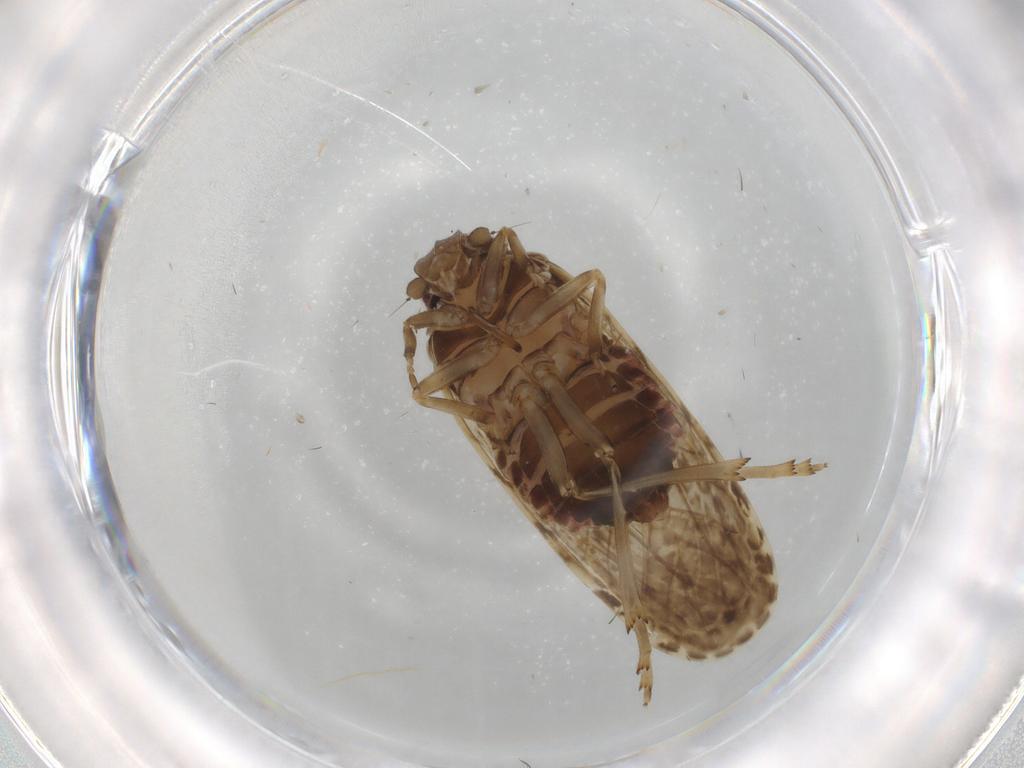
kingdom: Animalia
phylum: Arthropoda
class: Insecta
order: Hemiptera
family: Achilidae
